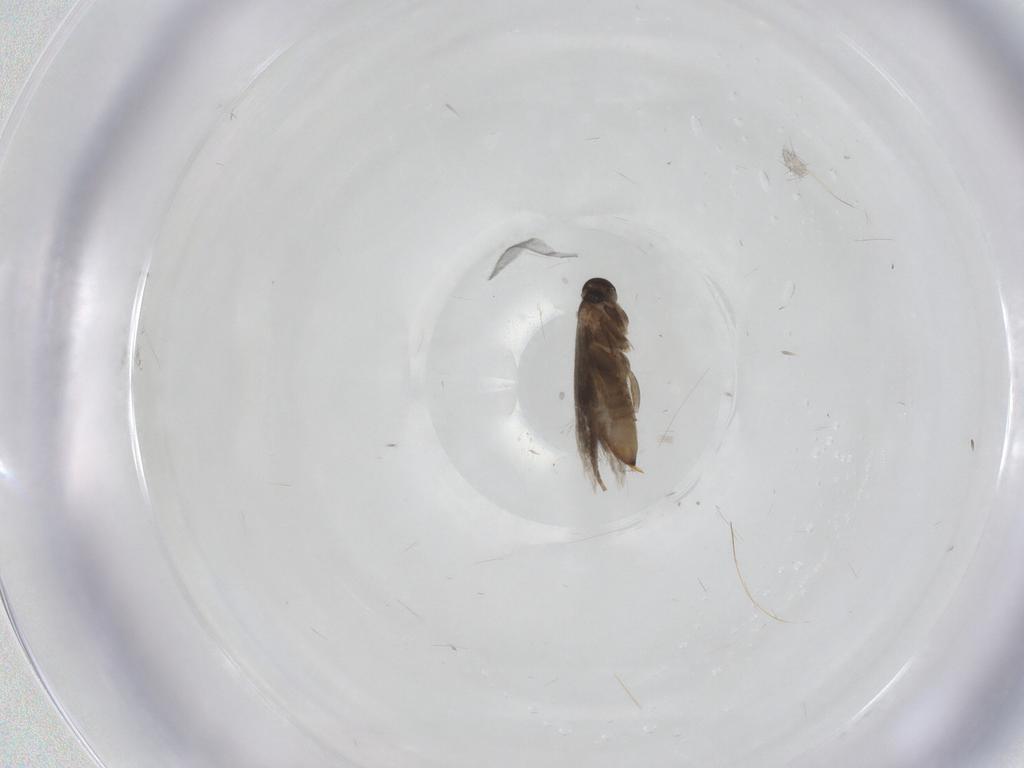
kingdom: Animalia
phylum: Arthropoda
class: Insecta
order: Lepidoptera
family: Heliozelidae
